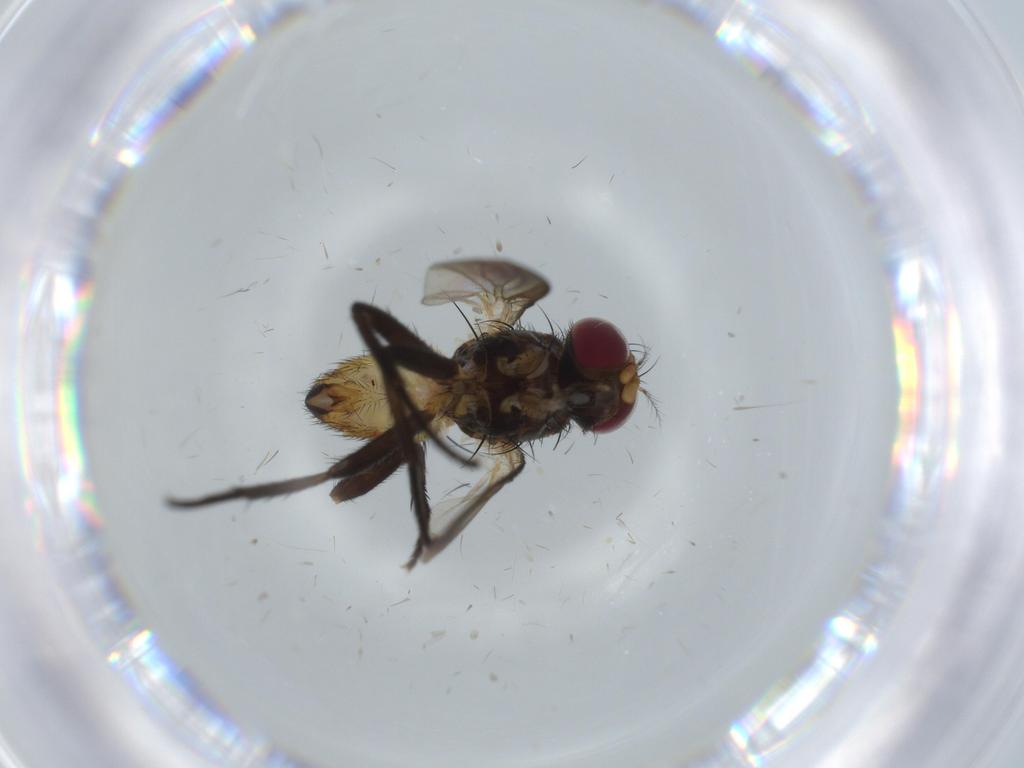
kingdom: Animalia
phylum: Arthropoda
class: Insecta
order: Diptera
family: Anthomyiidae
